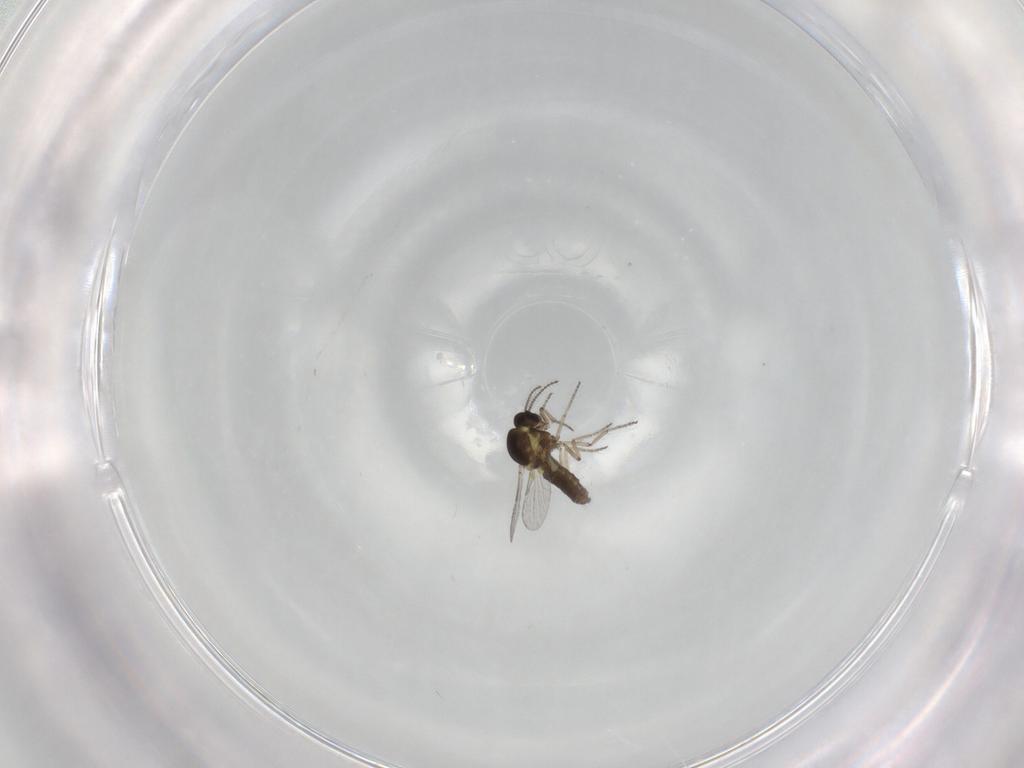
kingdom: Animalia
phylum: Arthropoda
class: Insecta
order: Diptera
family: Ceratopogonidae
